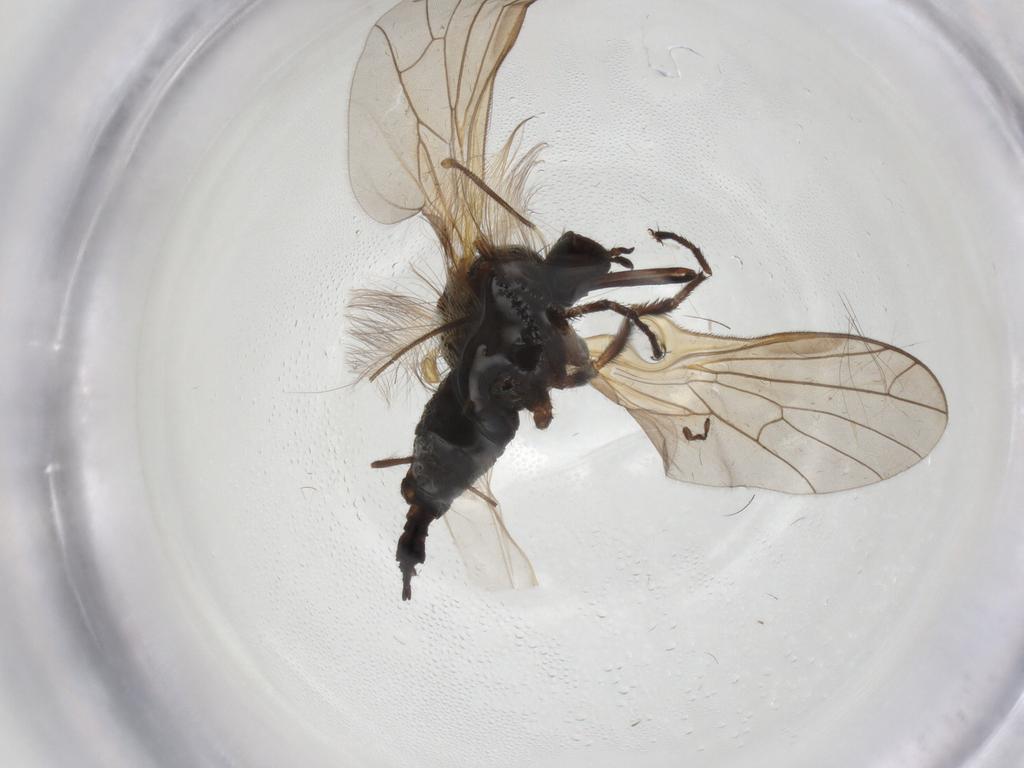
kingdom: Animalia
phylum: Arthropoda
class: Insecta
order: Diptera
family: Empididae
